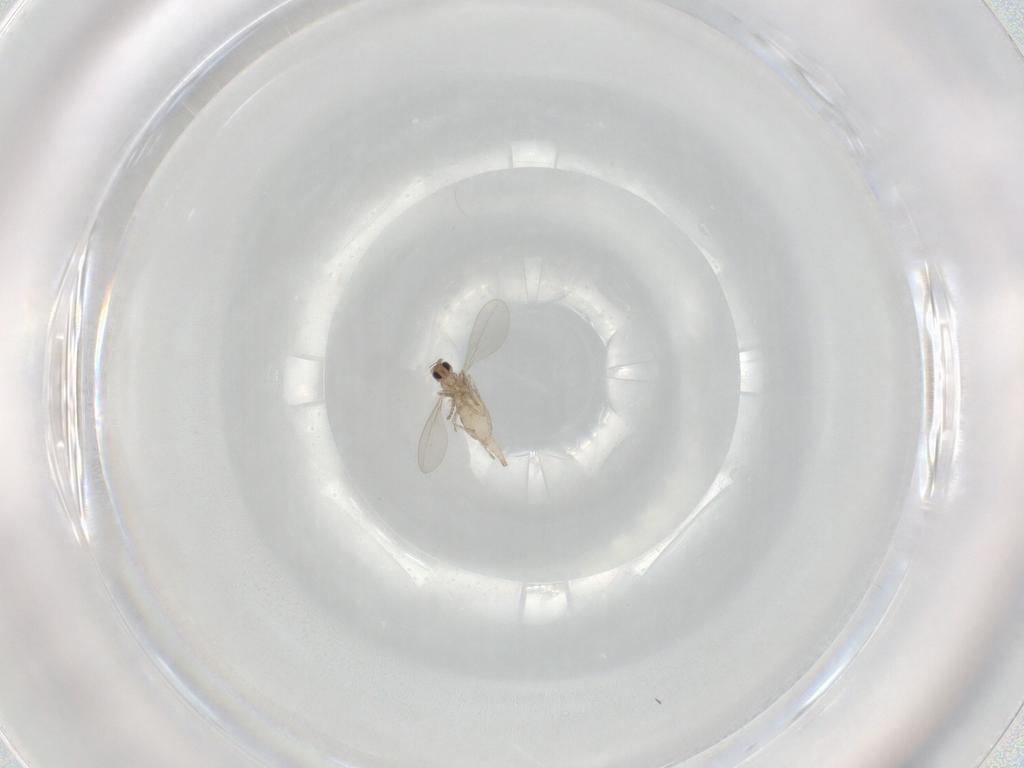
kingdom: Animalia
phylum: Arthropoda
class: Insecta
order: Diptera
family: Cecidomyiidae
